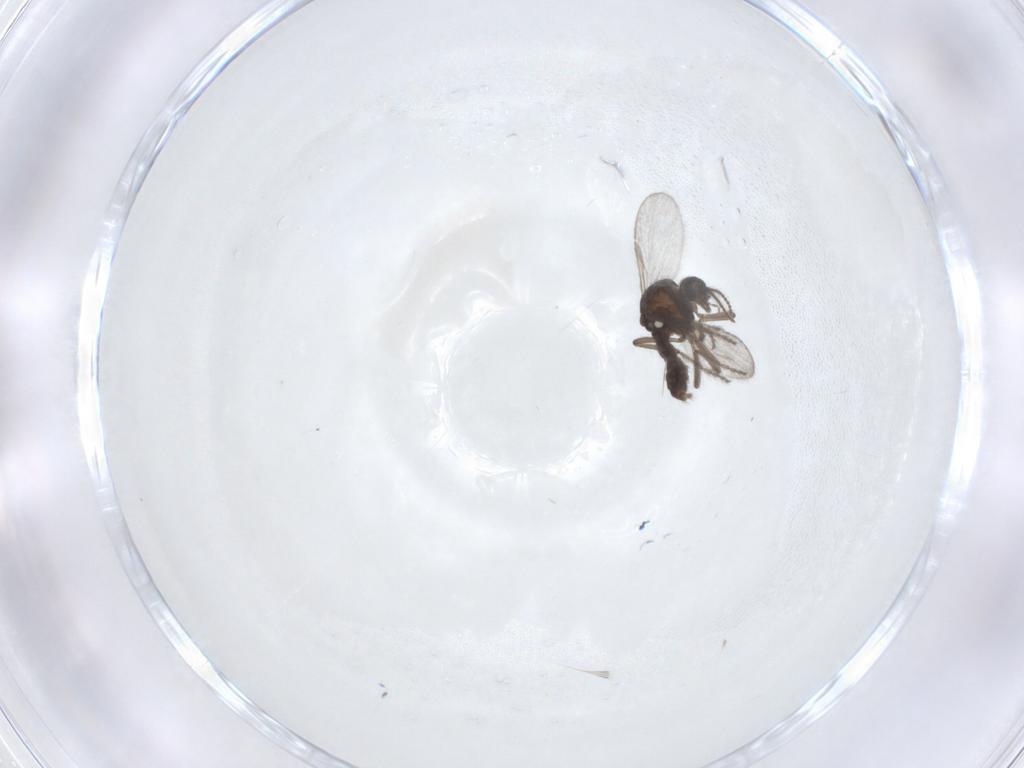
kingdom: Animalia
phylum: Arthropoda
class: Insecta
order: Diptera
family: Ceratopogonidae
